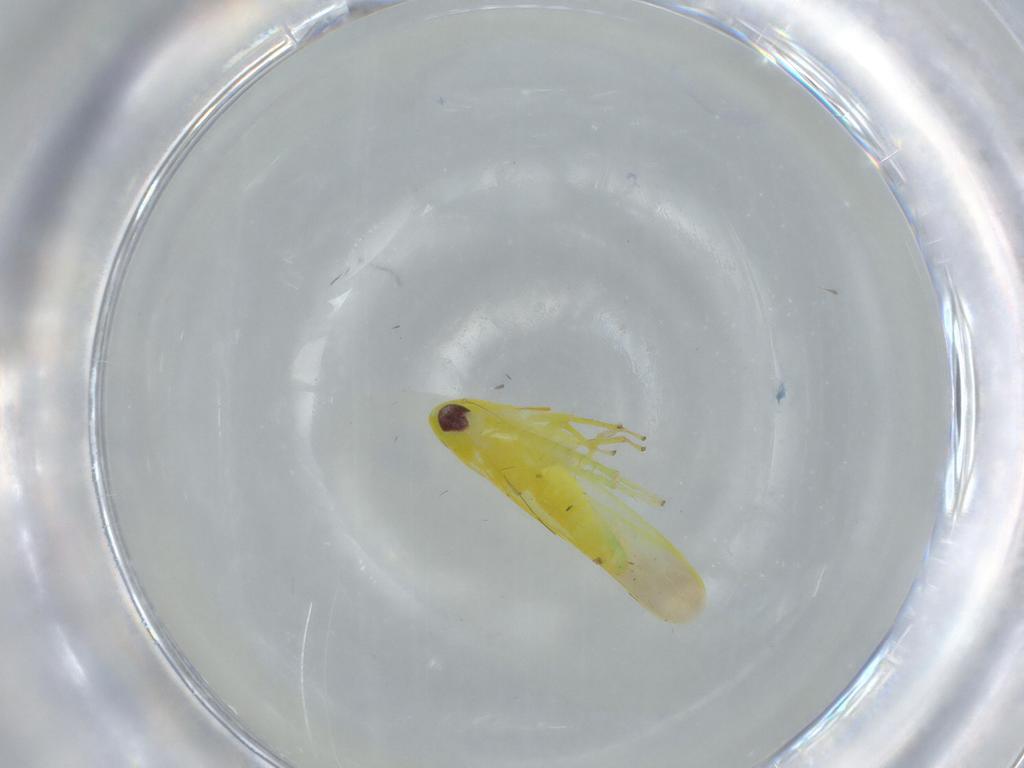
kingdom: Animalia
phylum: Arthropoda
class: Insecta
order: Hemiptera
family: Cicadellidae
